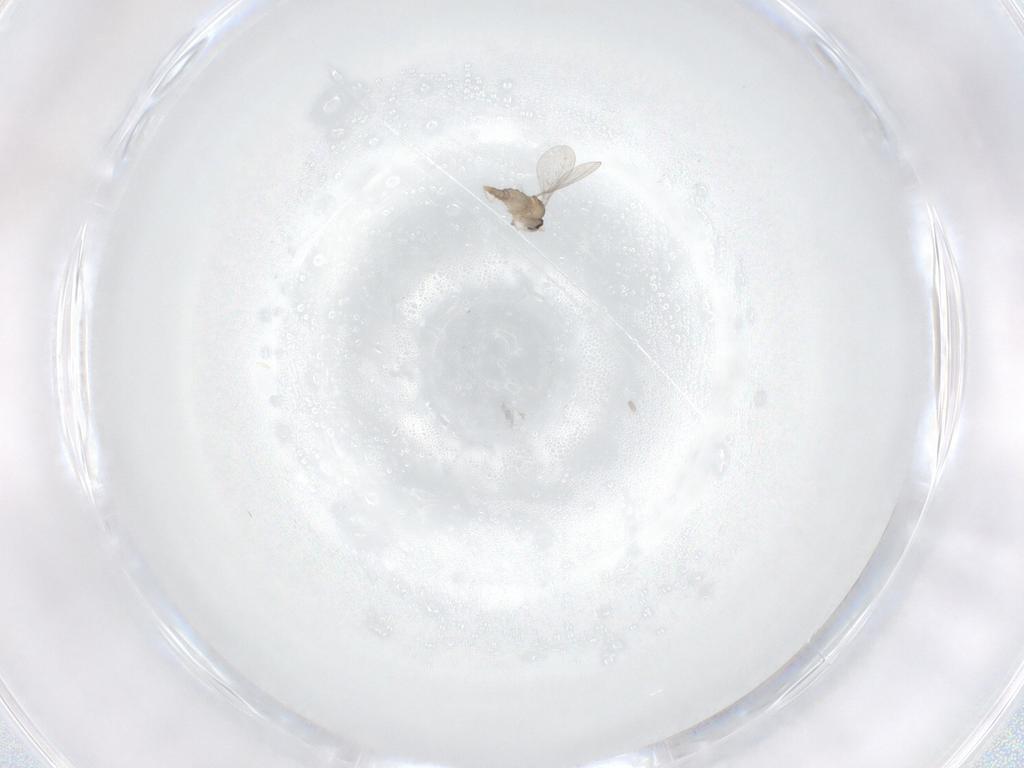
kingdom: Animalia
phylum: Arthropoda
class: Insecta
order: Diptera
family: Cecidomyiidae
